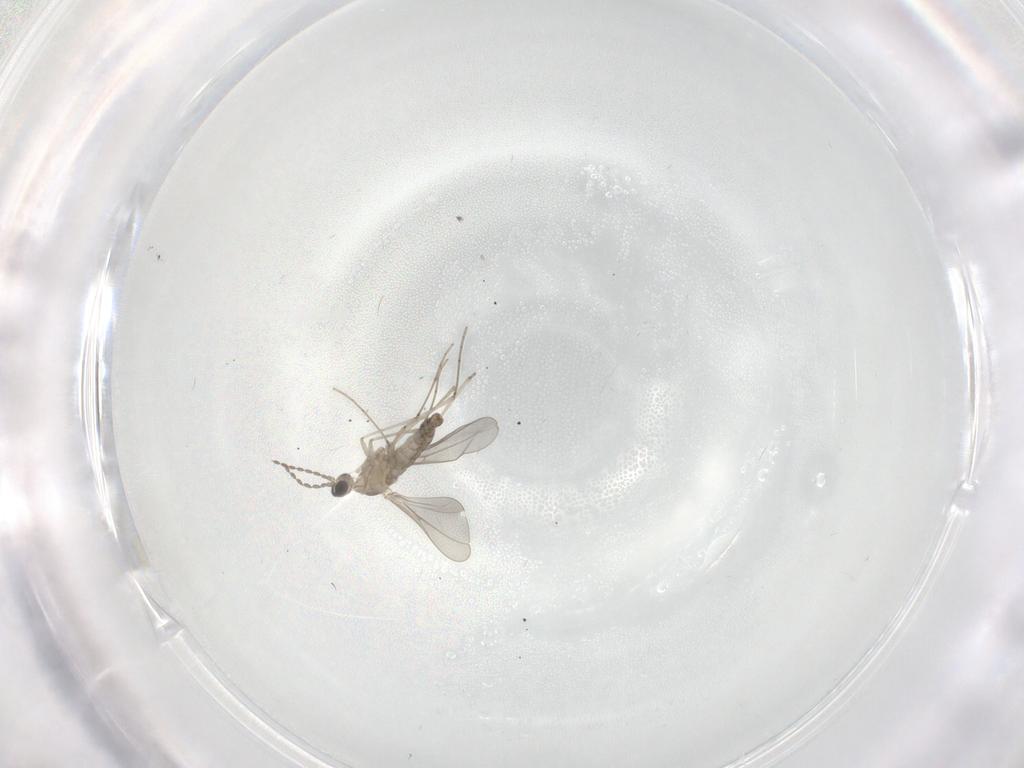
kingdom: Animalia
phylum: Arthropoda
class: Insecta
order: Diptera
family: Cecidomyiidae
